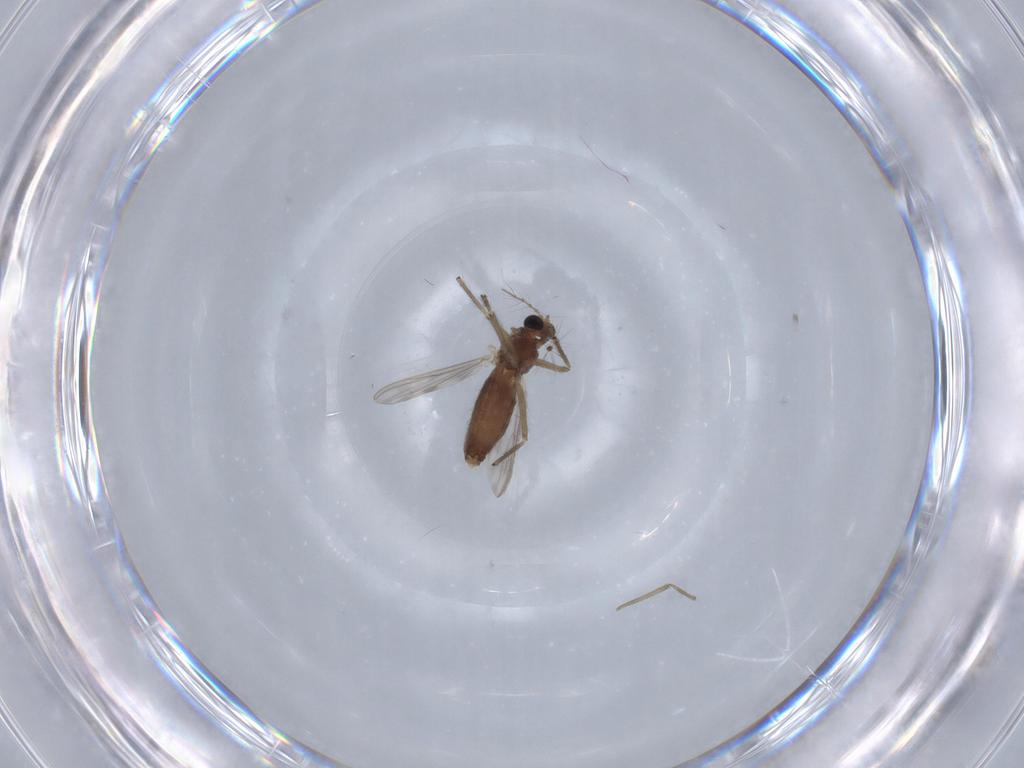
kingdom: Animalia
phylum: Arthropoda
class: Insecta
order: Diptera
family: Chironomidae
